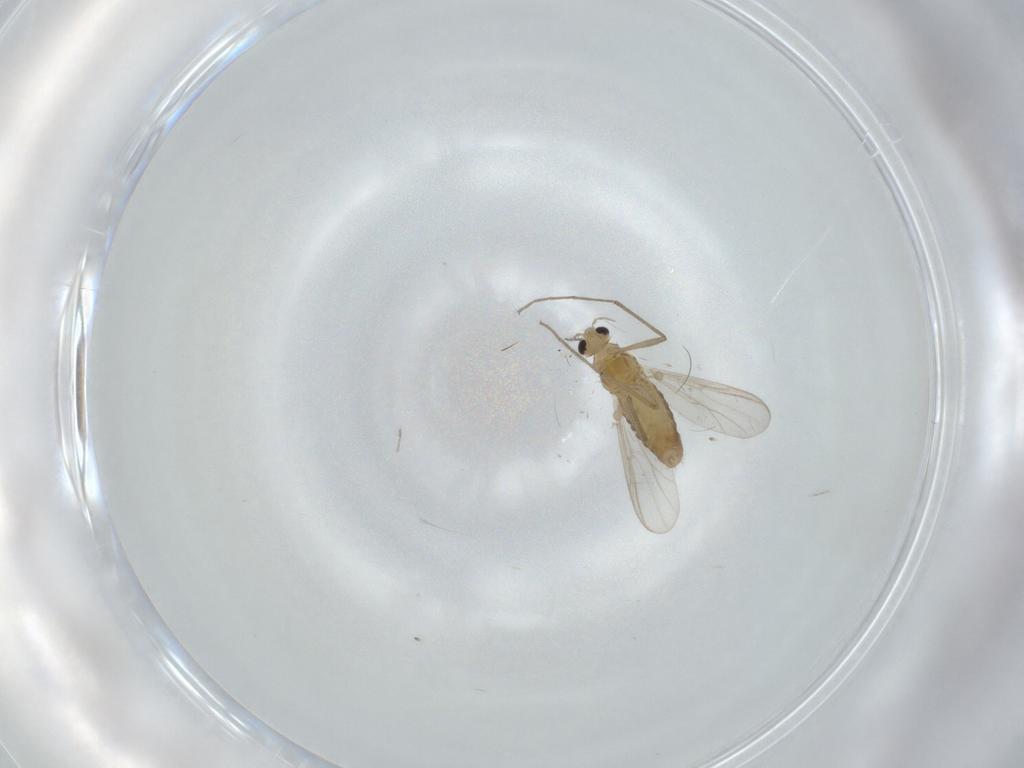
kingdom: Animalia
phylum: Arthropoda
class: Insecta
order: Diptera
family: Chironomidae
